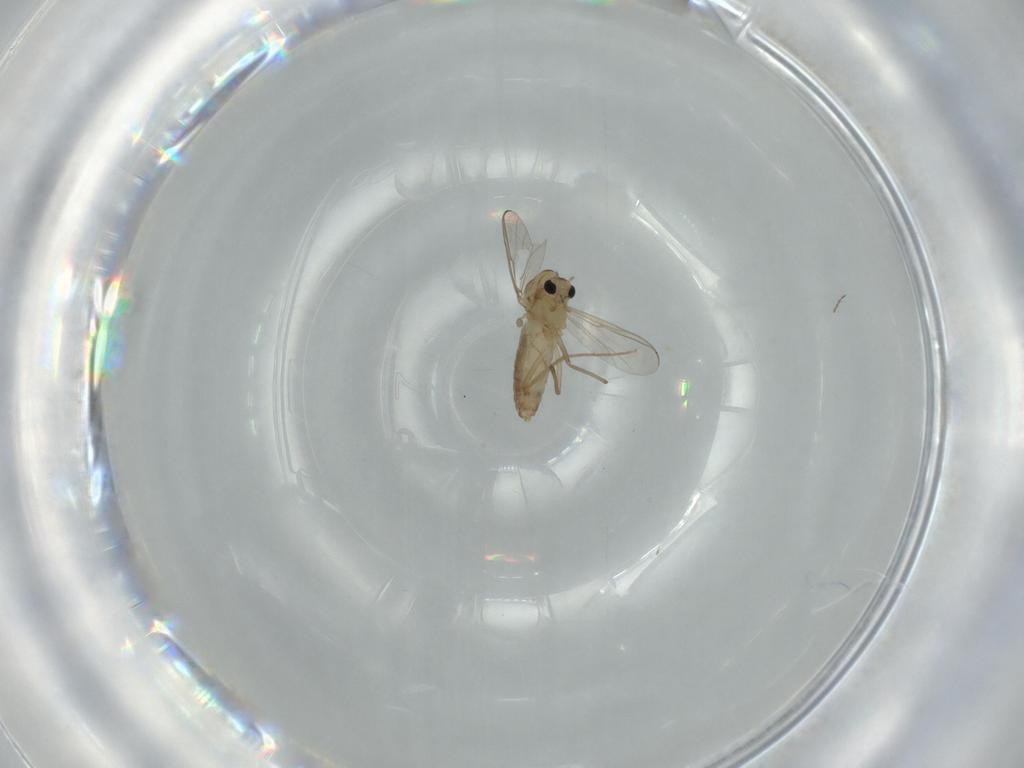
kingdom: Animalia
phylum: Arthropoda
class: Insecta
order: Diptera
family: Chironomidae
